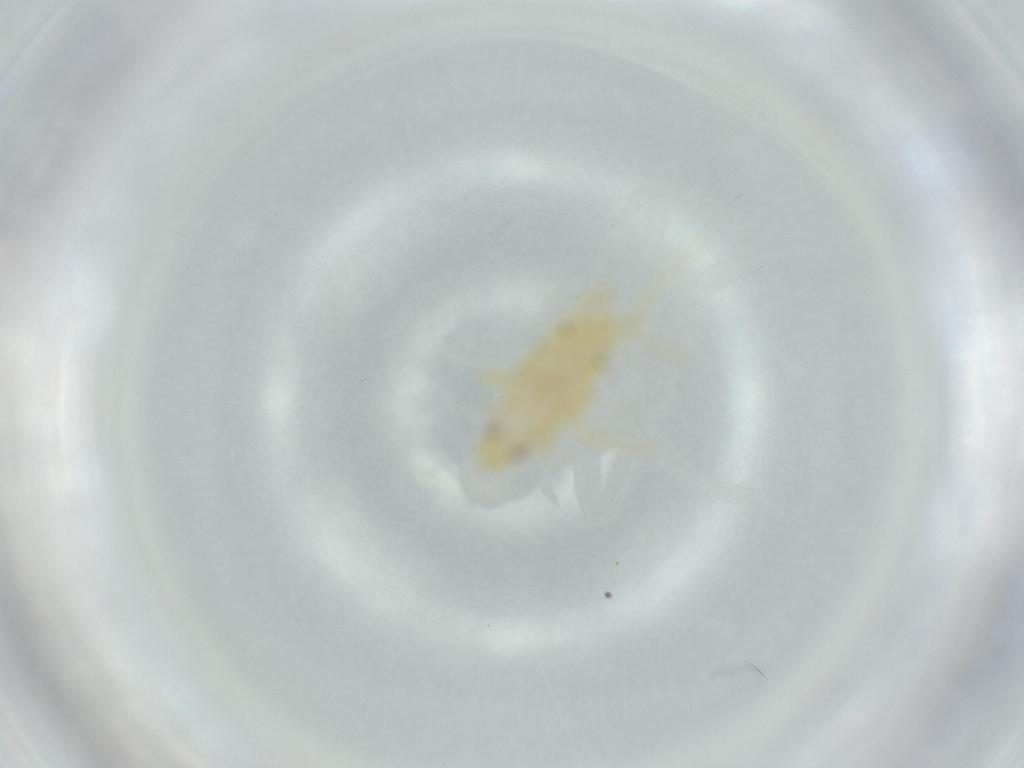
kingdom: Animalia
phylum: Arthropoda
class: Insecta
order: Hemiptera
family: Tropiduchidae
